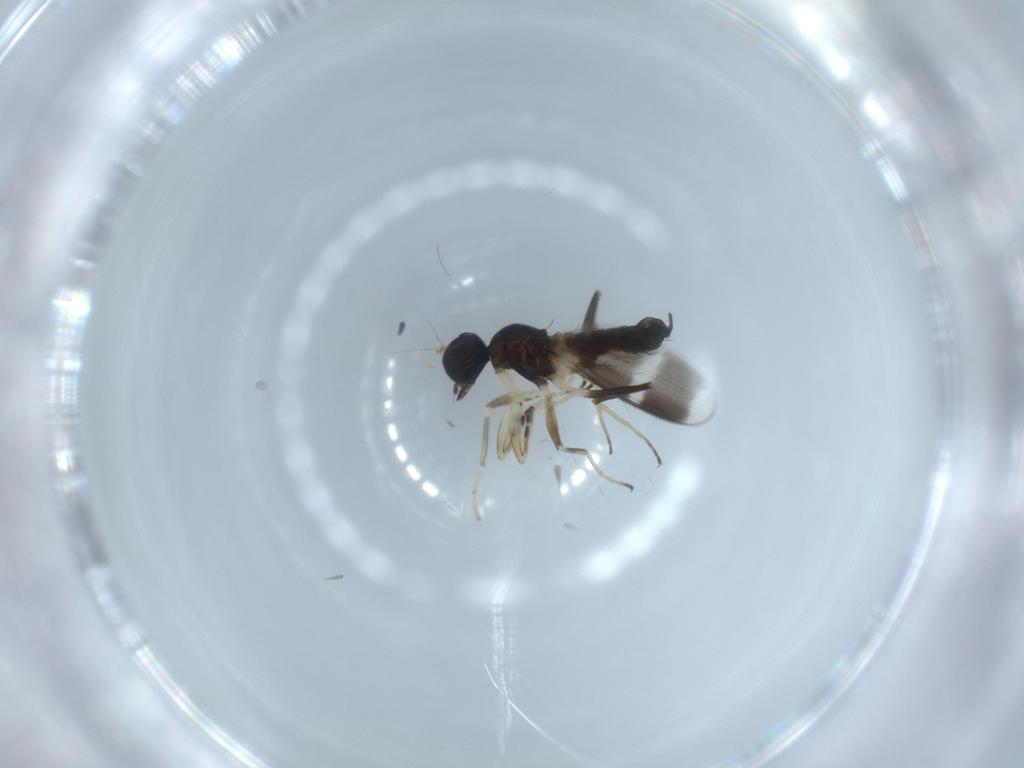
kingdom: Animalia
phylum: Arthropoda
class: Insecta
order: Diptera
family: Hybotidae
